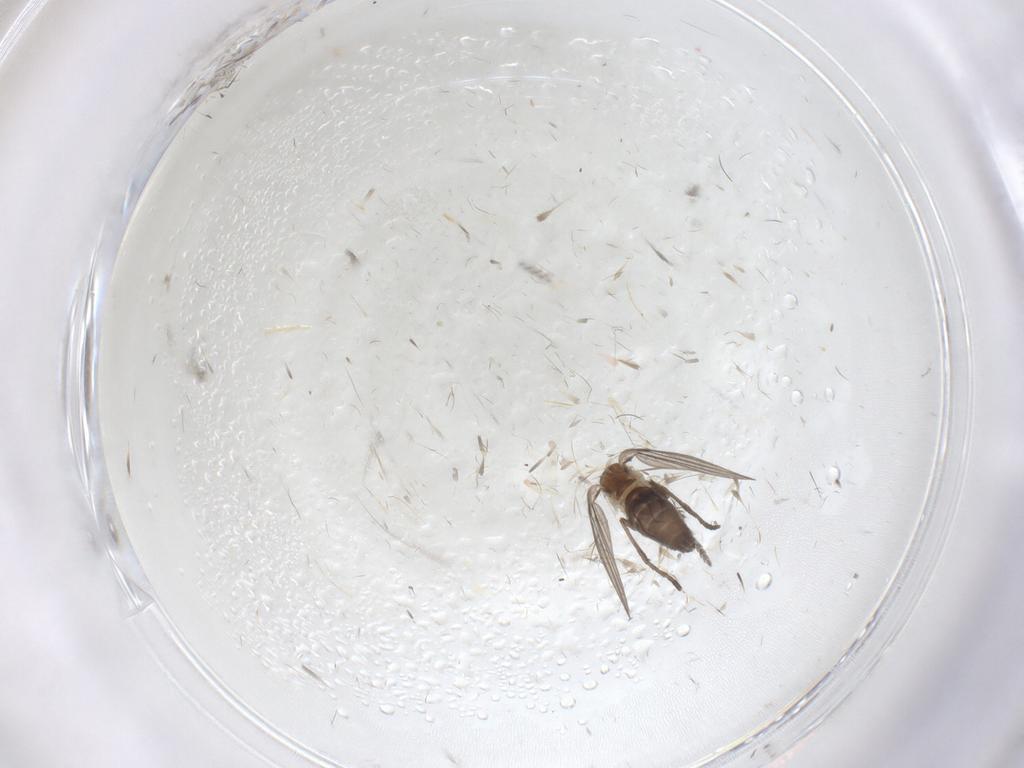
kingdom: Animalia
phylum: Arthropoda
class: Insecta
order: Diptera
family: Psychodidae
